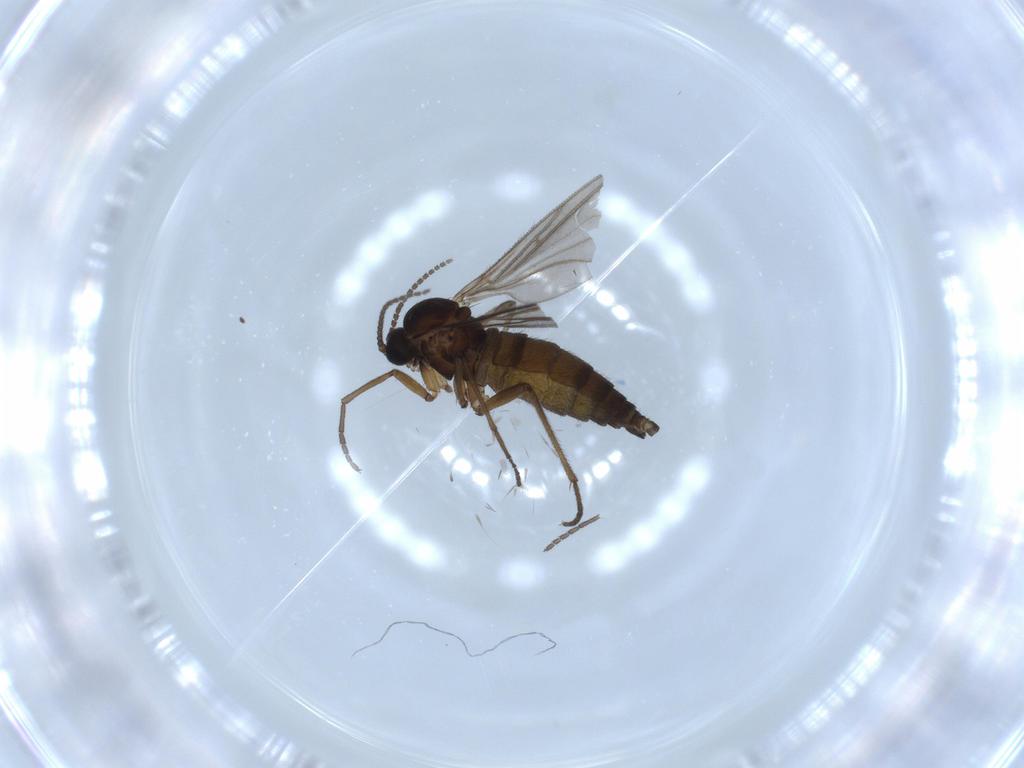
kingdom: Animalia
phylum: Arthropoda
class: Insecta
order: Diptera
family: Sciaridae
